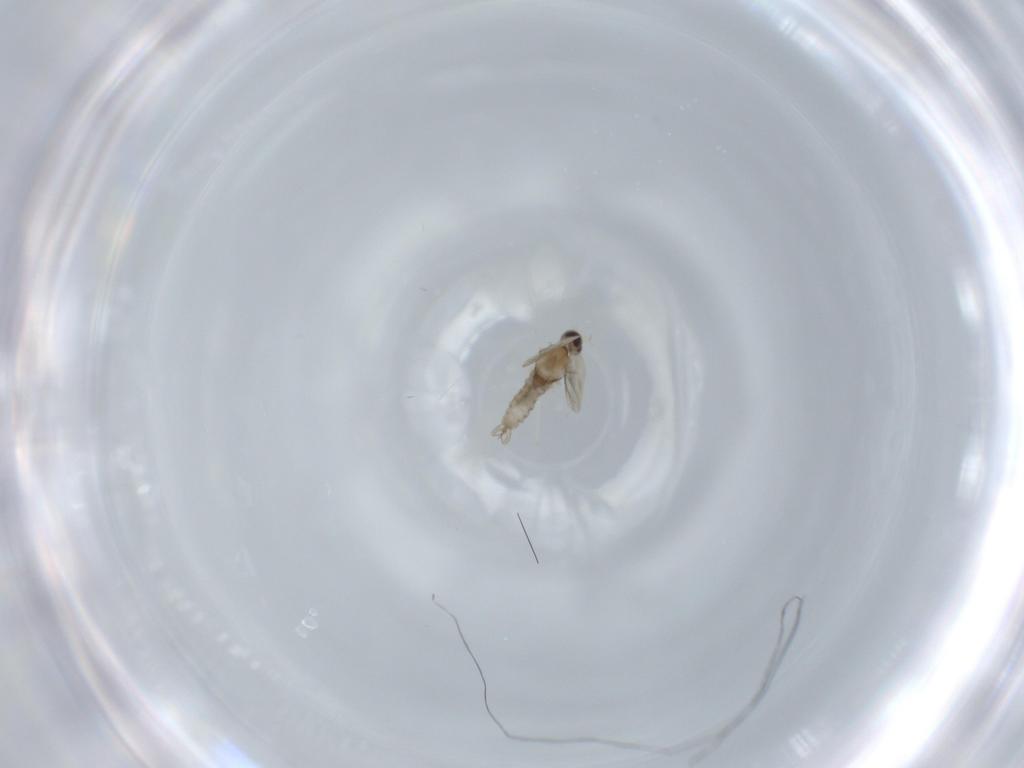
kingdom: Animalia
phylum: Arthropoda
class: Insecta
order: Diptera
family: Cecidomyiidae
